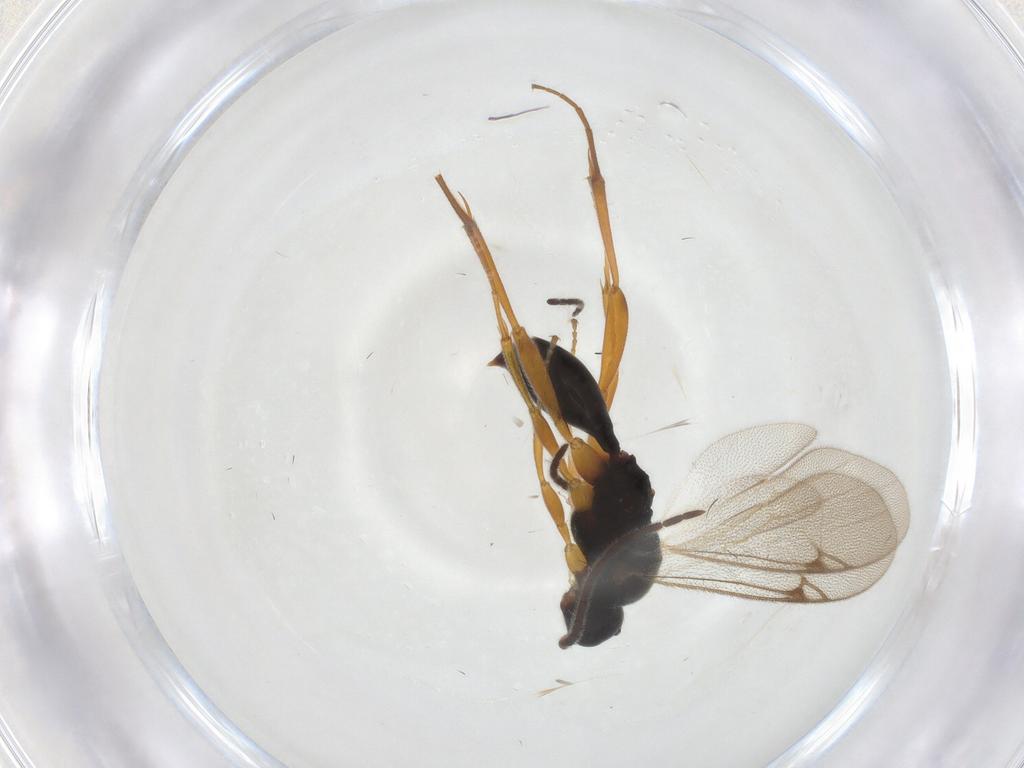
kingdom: Animalia
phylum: Arthropoda
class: Insecta
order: Hymenoptera
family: Braconidae
